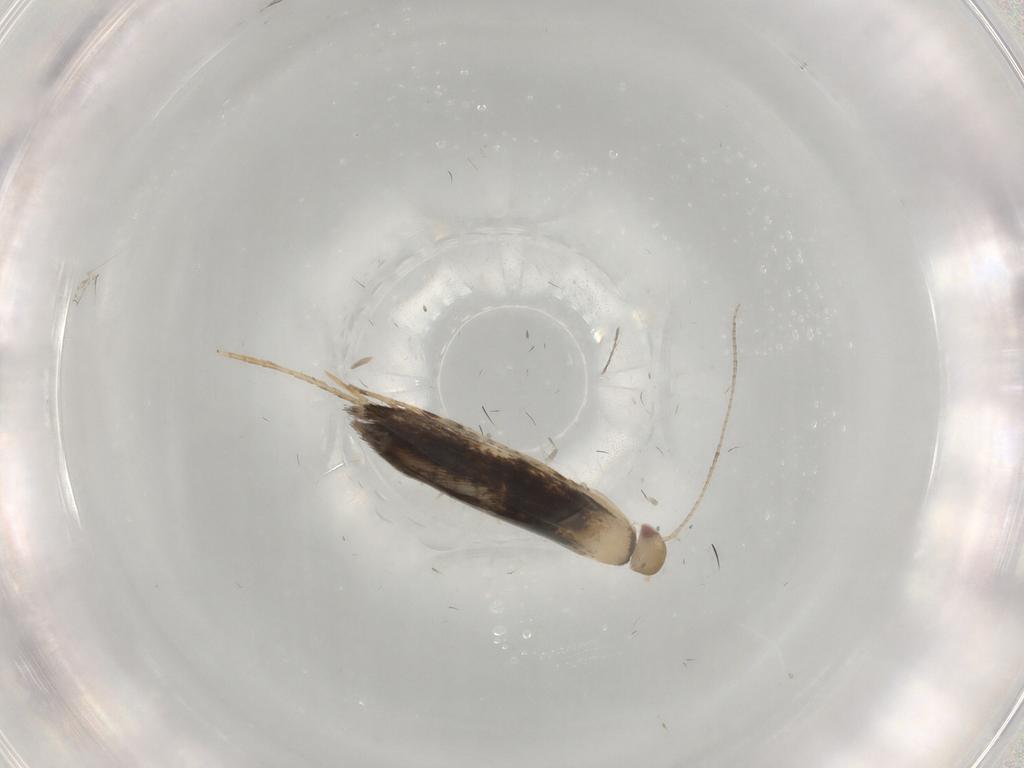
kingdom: Animalia
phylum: Arthropoda
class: Insecta
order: Lepidoptera
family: Gracillariidae
